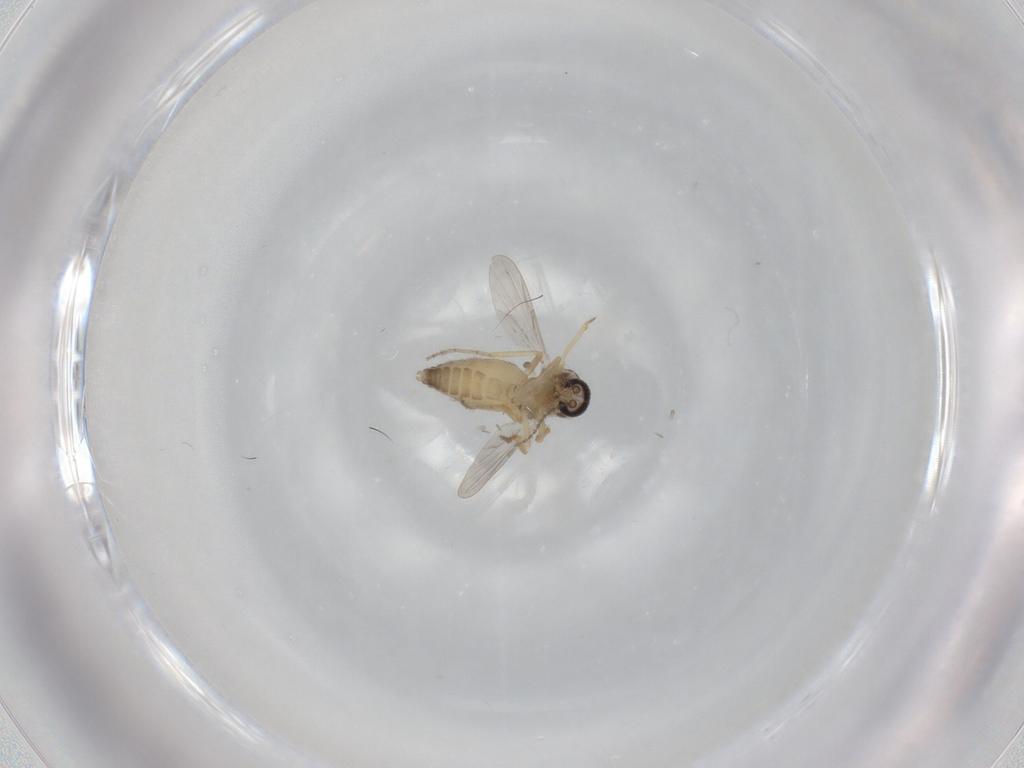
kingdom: Animalia
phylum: Arthropoda
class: Insecta
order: Diptera
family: Ceratopogonidae
